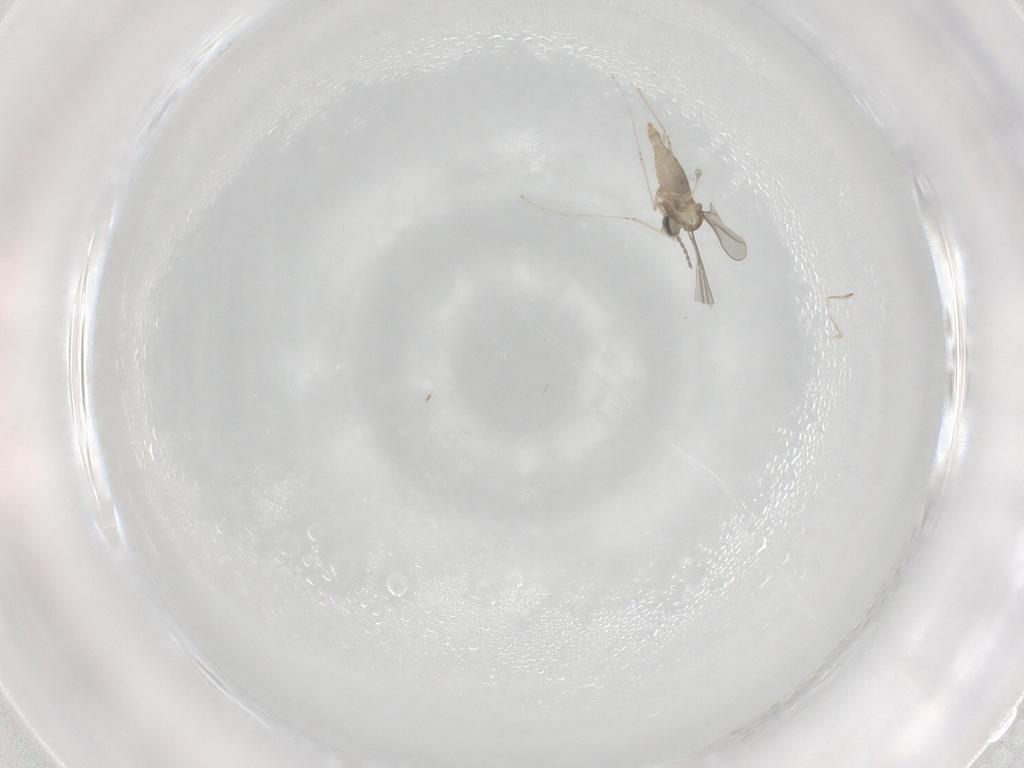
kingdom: Animalia
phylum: Arthropoda
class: Insecta
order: Diptera
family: Cecidomyiidae
